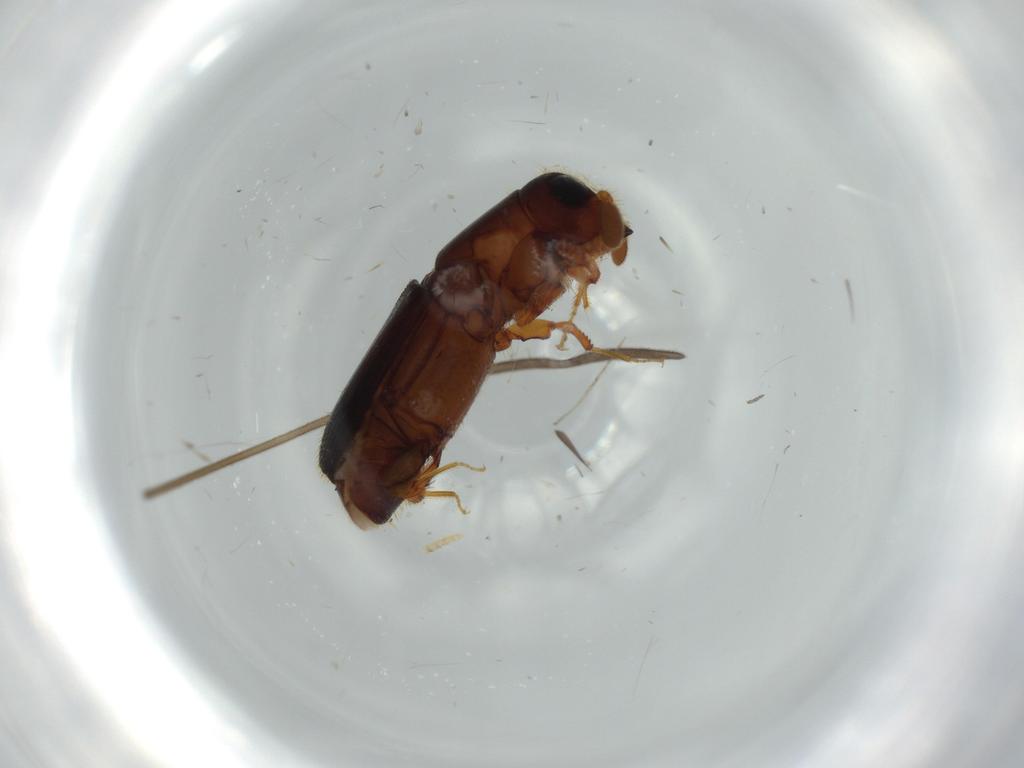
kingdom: Animalia
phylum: Arthropoda
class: Insecta
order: Coleoptera
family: Curculionidae
